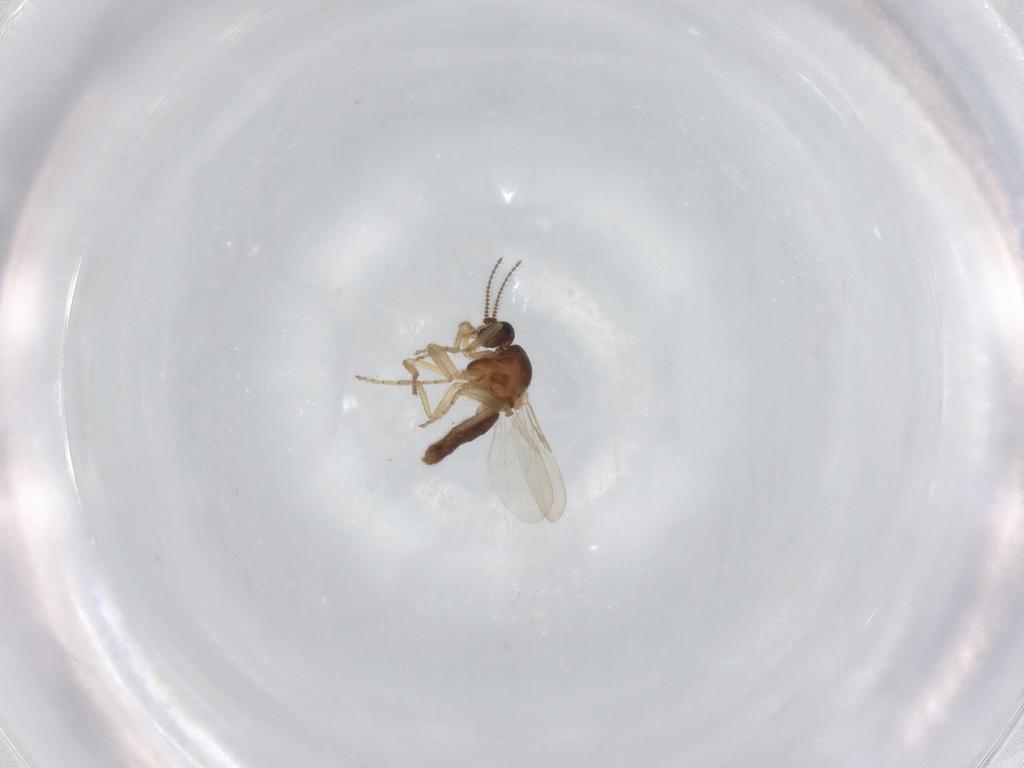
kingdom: Animalia
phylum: Arthropoda
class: Insecta
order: Diptera
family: Ceratopogonidae
